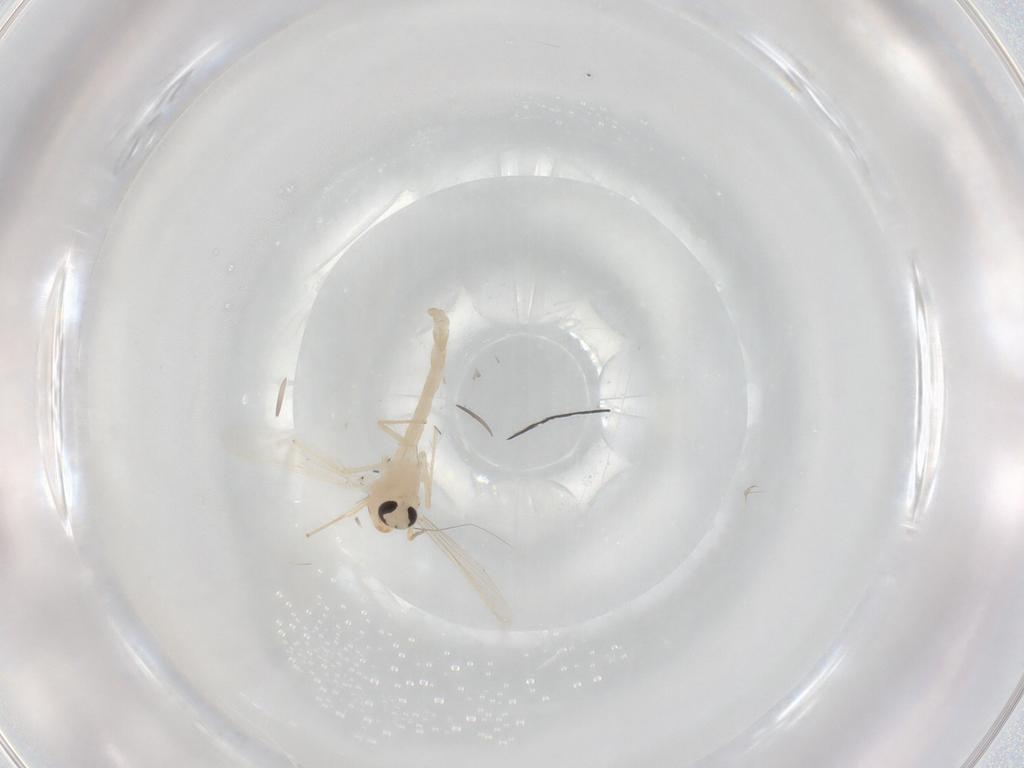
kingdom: Animalia
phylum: Arthropoda
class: Insecta
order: Diptera
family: Chironomidae
